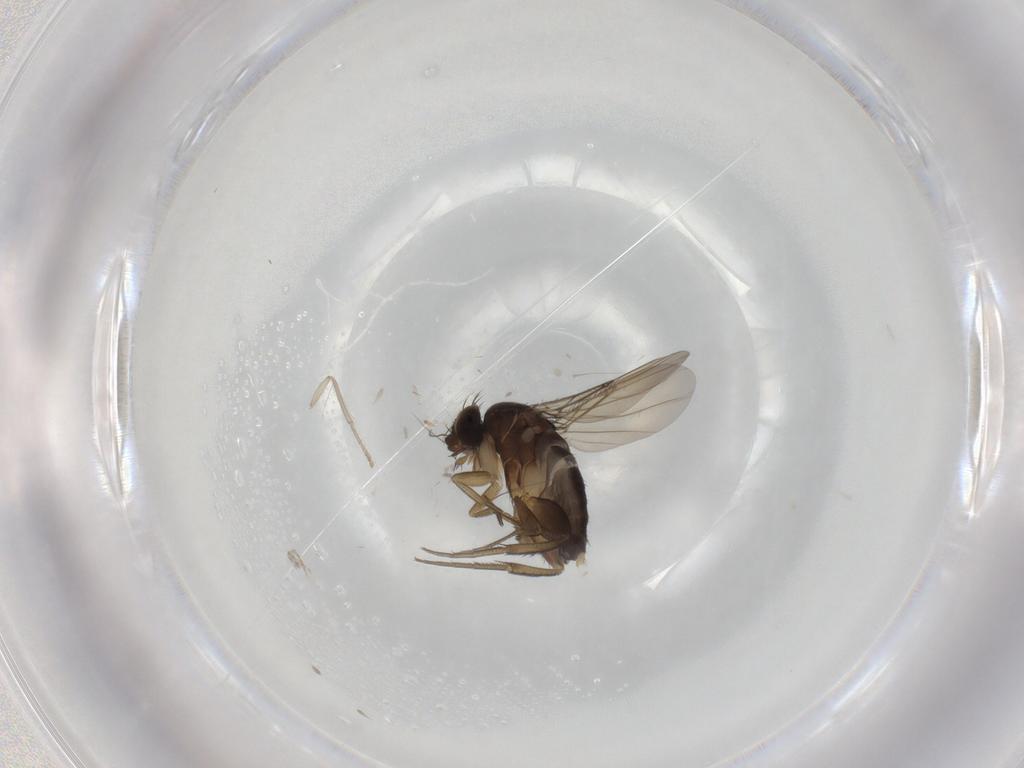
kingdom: Animalia
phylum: Arthropoda
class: Insecta
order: Diptera
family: Phoridae
